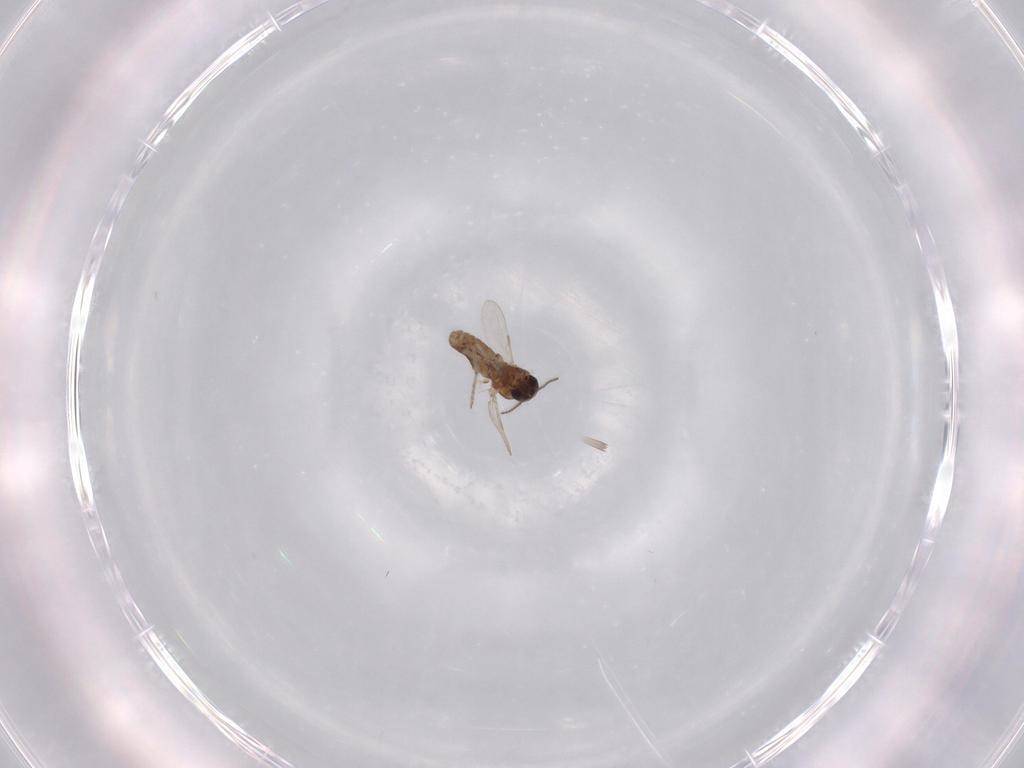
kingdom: Animalia
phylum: Arthropoda
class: Insecta
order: Diptera
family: Ceratopogonidae
